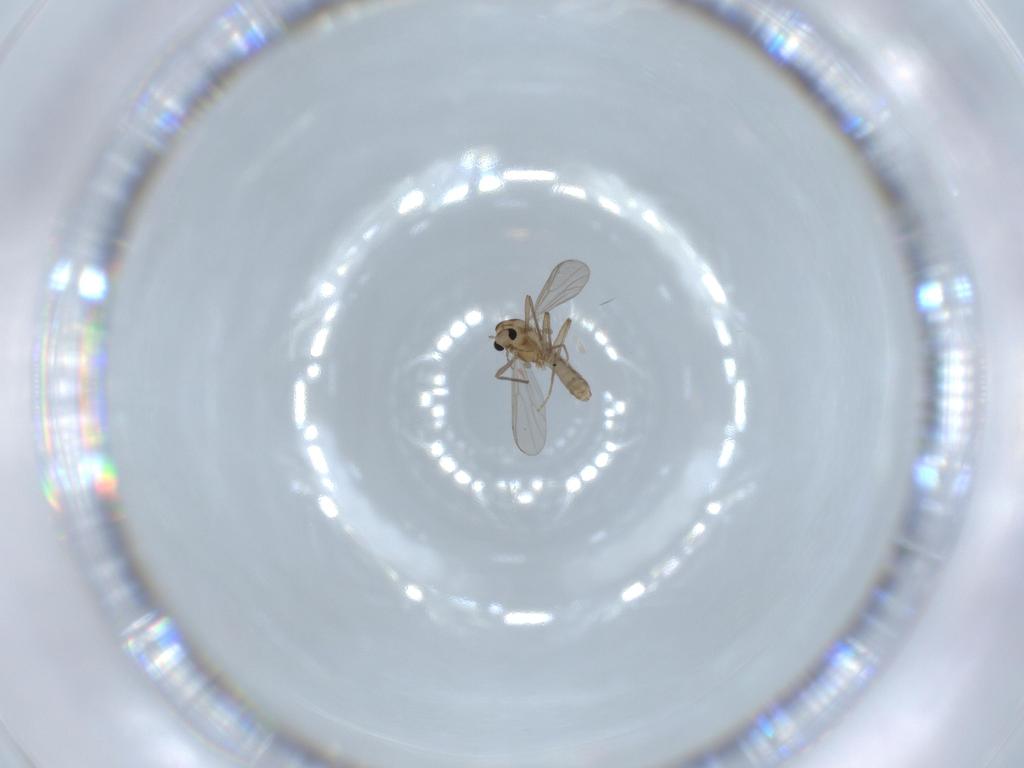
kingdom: Animalia
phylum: Arthropoda
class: Insecta
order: Diptera
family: Chironomidae
